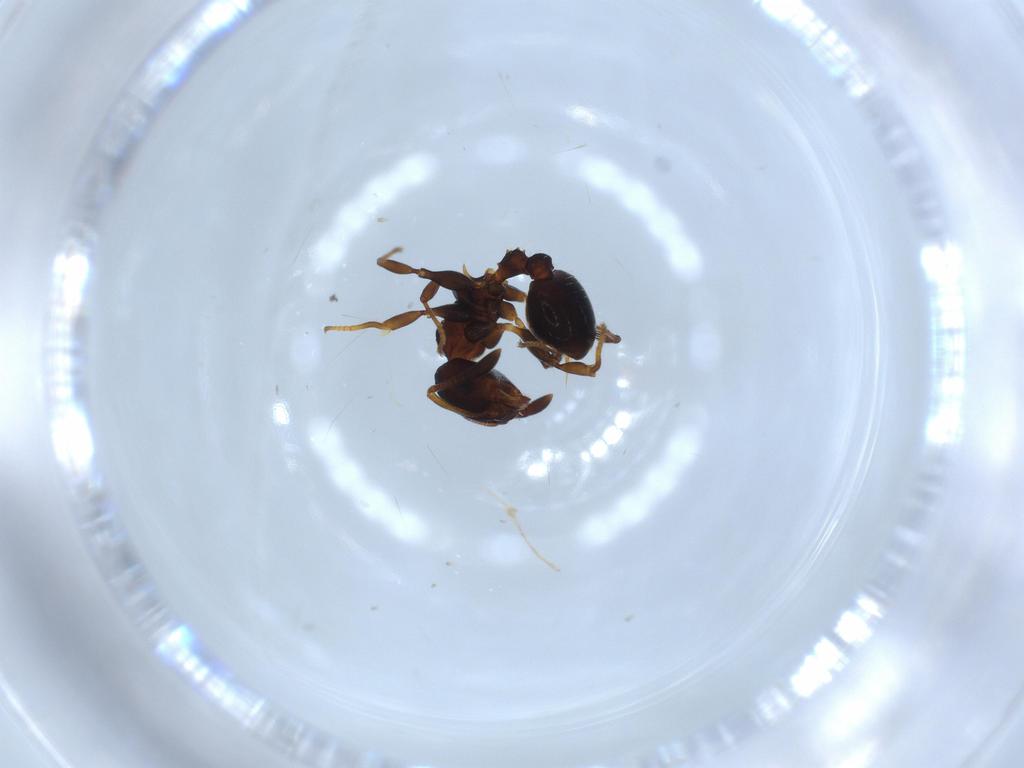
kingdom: Animalia
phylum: Arthropoda
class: Insecta
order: Hymenoptera
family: Formicidae
